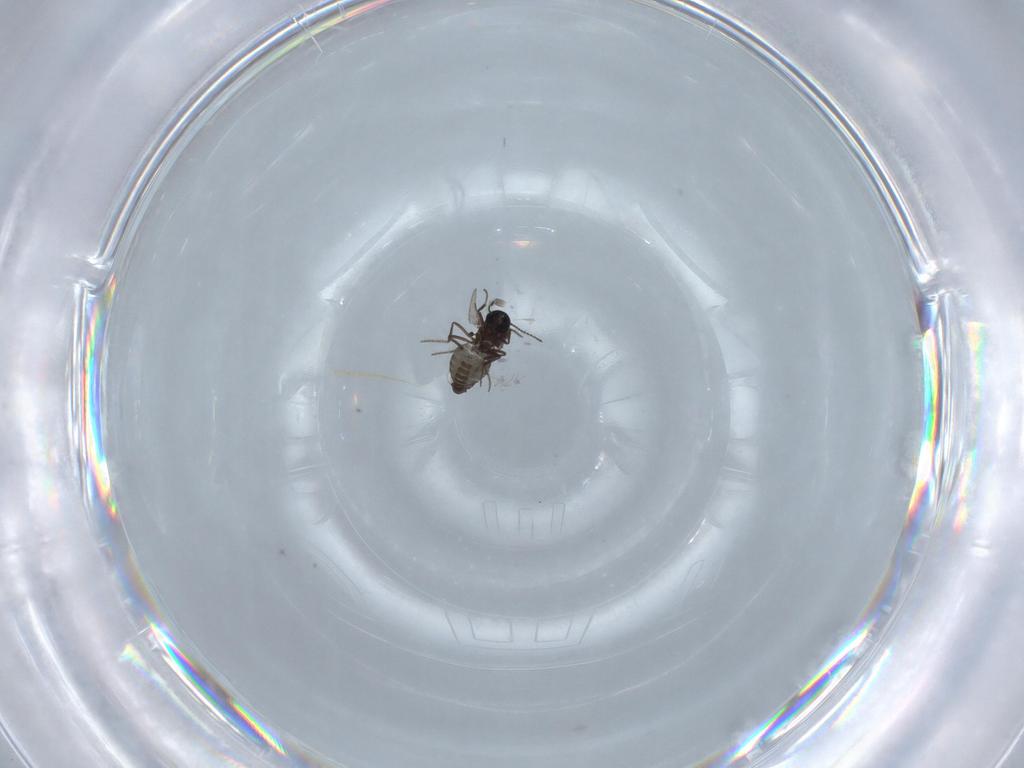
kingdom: Animalia
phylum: Arthropoda
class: Insecta
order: Diptera
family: Ceratopogonidae
